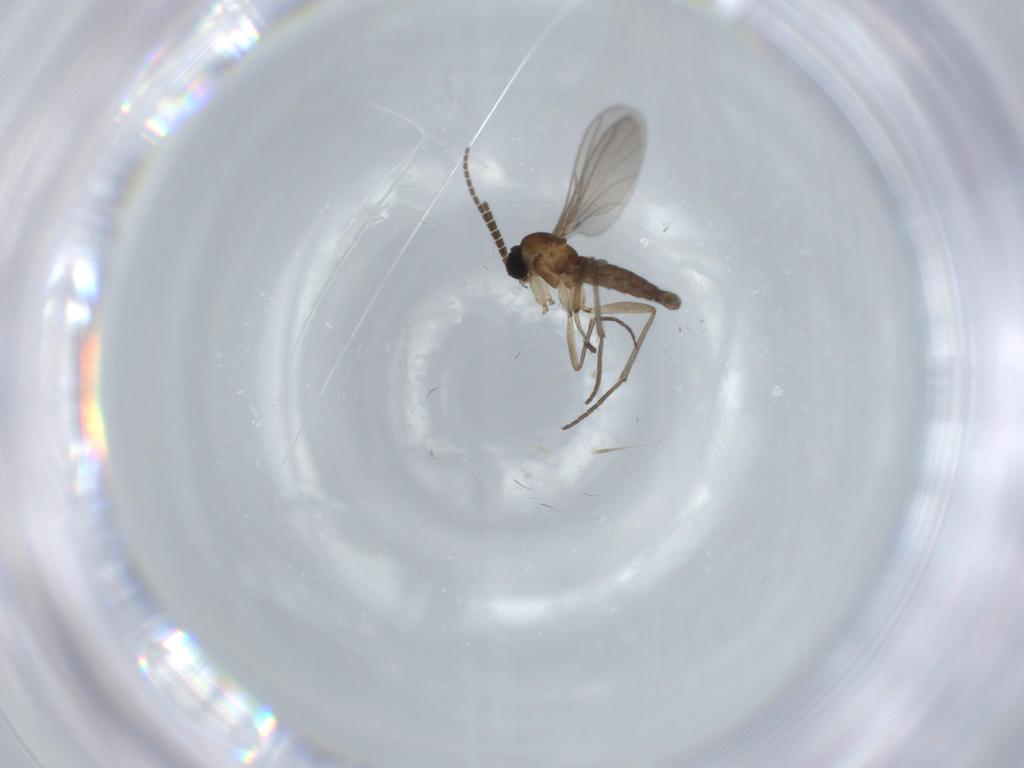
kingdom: Animalia
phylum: Arthropoda
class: Insecta
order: Diptera
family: Sciaridae
